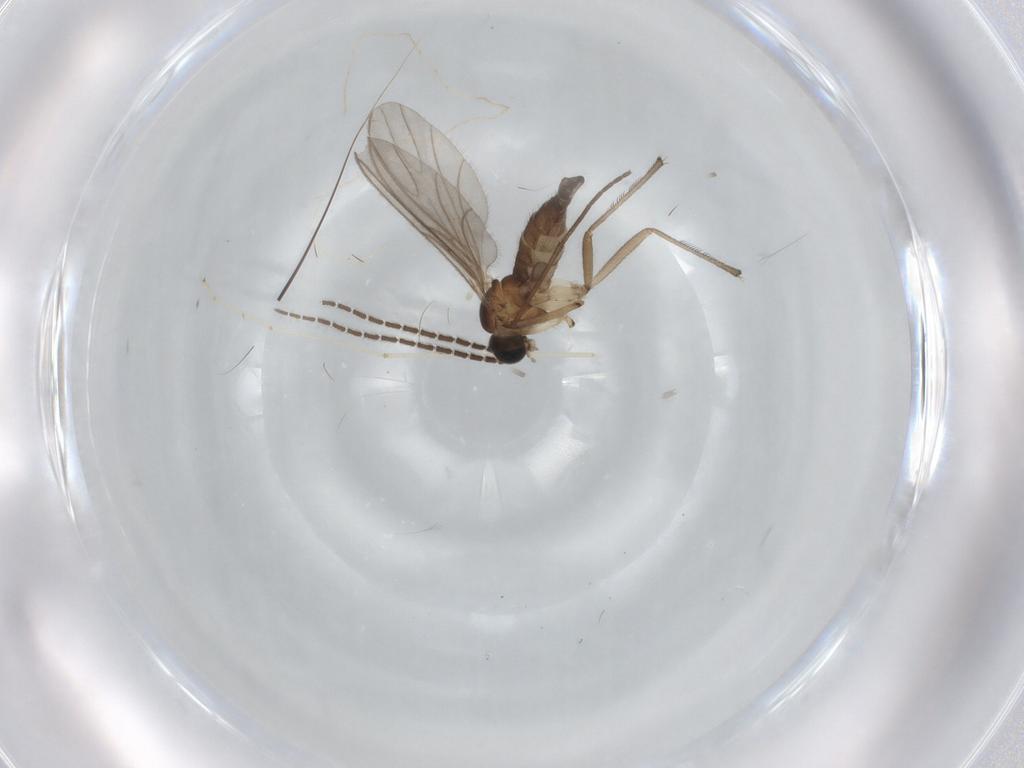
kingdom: Animalia
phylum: Arthropoda
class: Insecta
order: Diptera
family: Sciaridae
